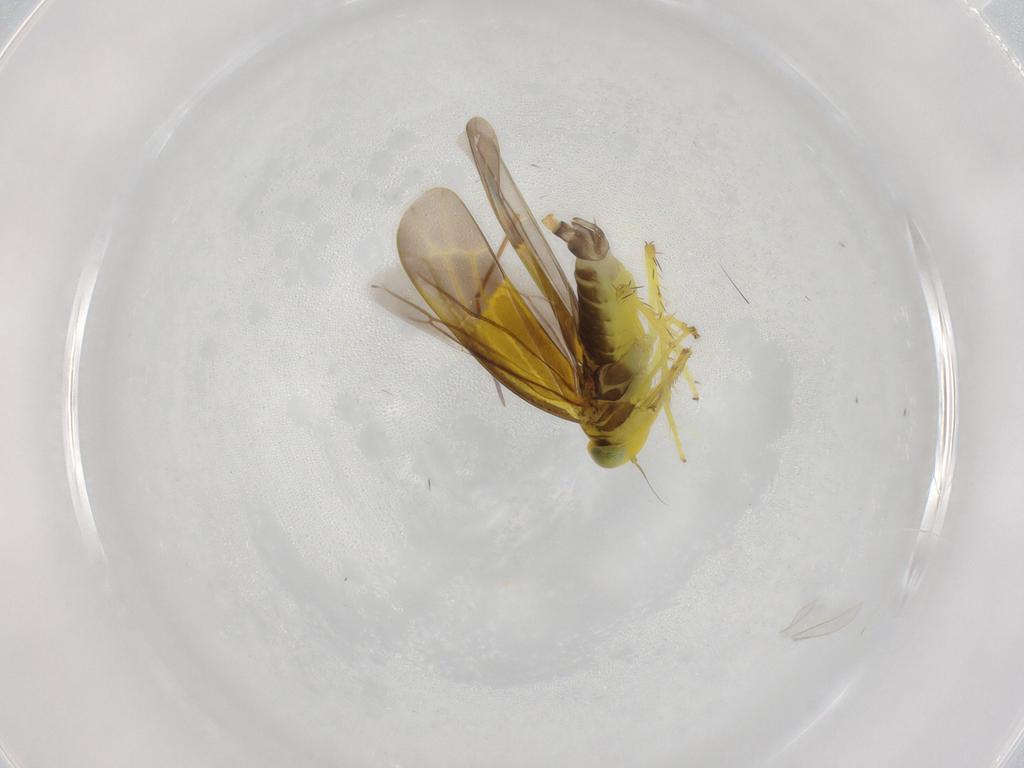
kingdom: Animalia
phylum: Arthropoda
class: Insecta
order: Hemiptera
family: Cicadellidae
